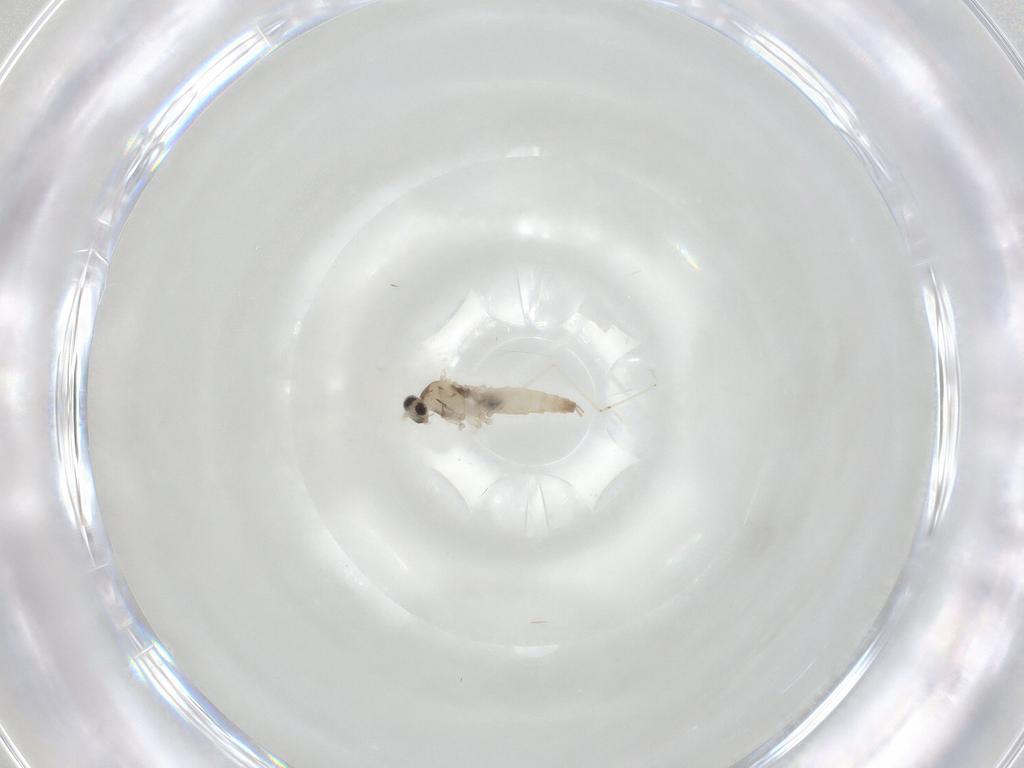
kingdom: Animalia
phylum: Arthropoda
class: Insecta
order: Diptera
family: Cecidomyiidae
